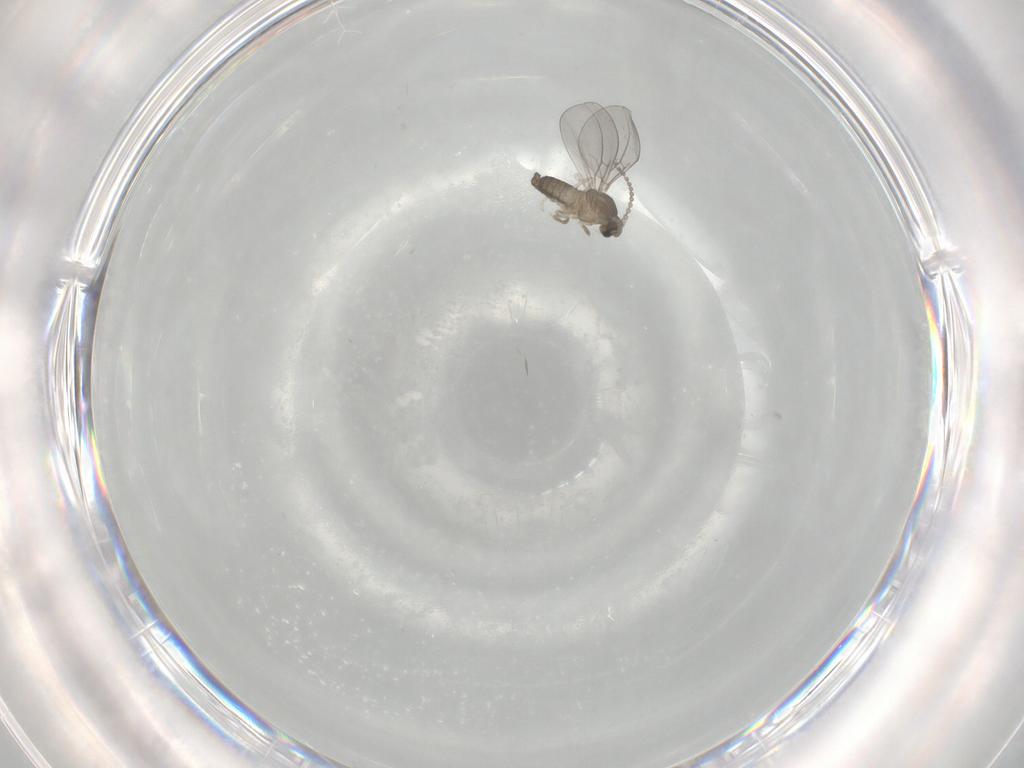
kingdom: Animalia
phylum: Arthropoda
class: Insecta
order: Diptera
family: Cecidomyiidae
